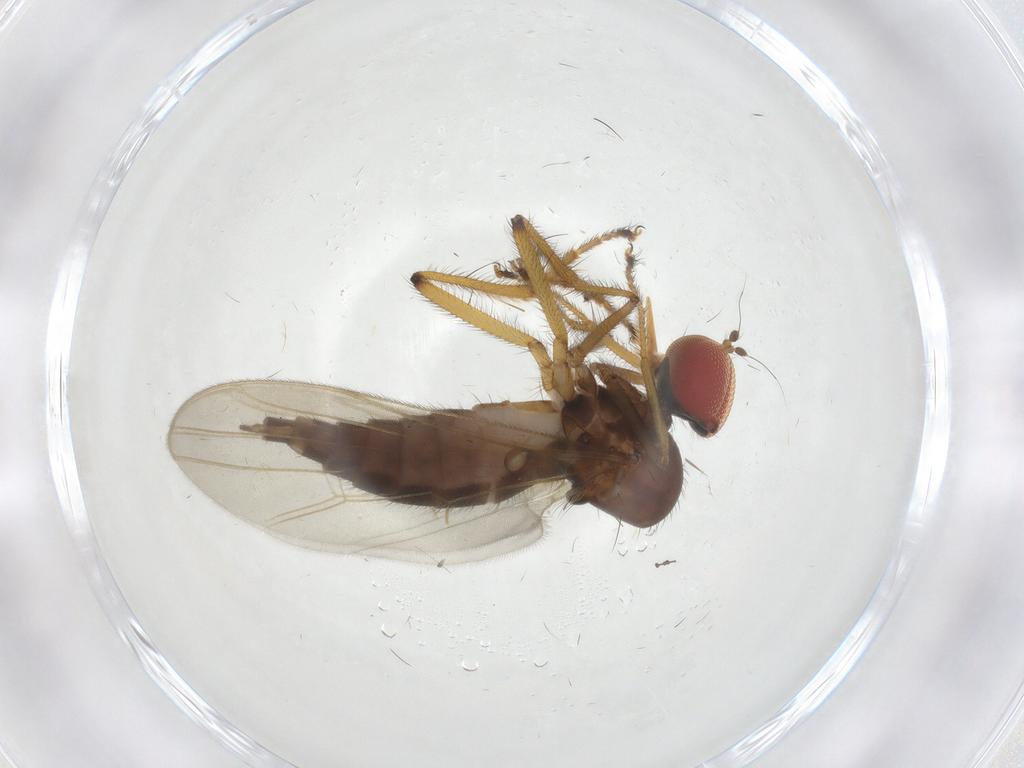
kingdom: Animalia
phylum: Arthropoda
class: Insecta
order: Diptera
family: Hybotidae
